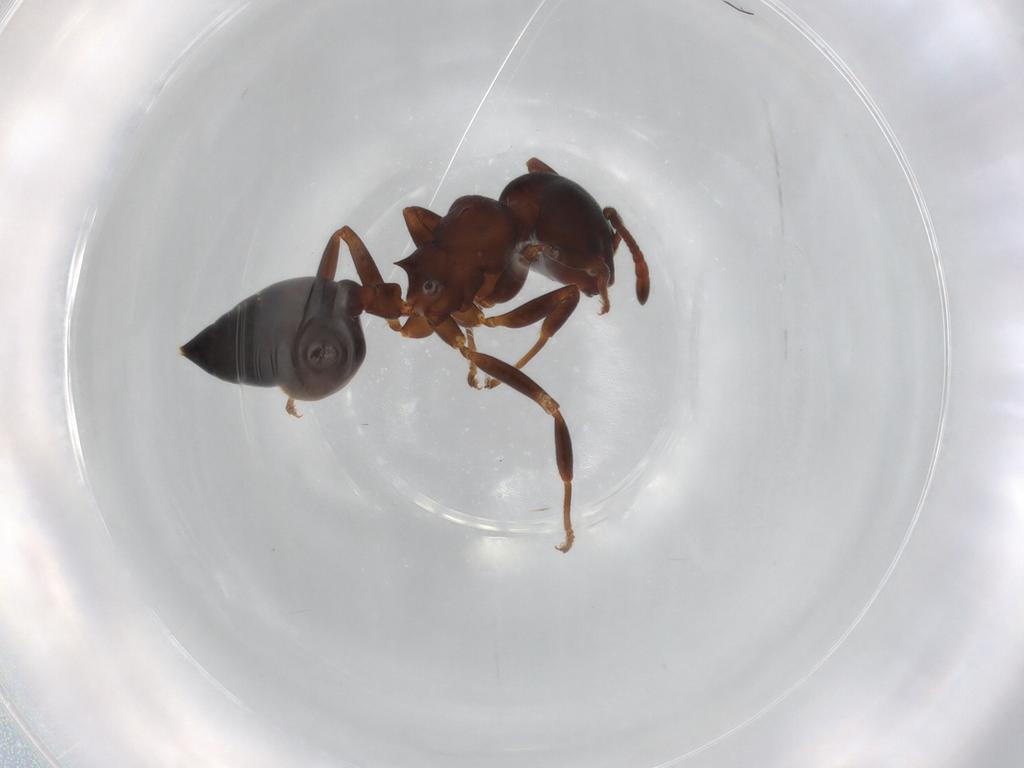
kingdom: Animalia
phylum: Arthropoda
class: Insecta
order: Hymenoptera
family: Formicidae
